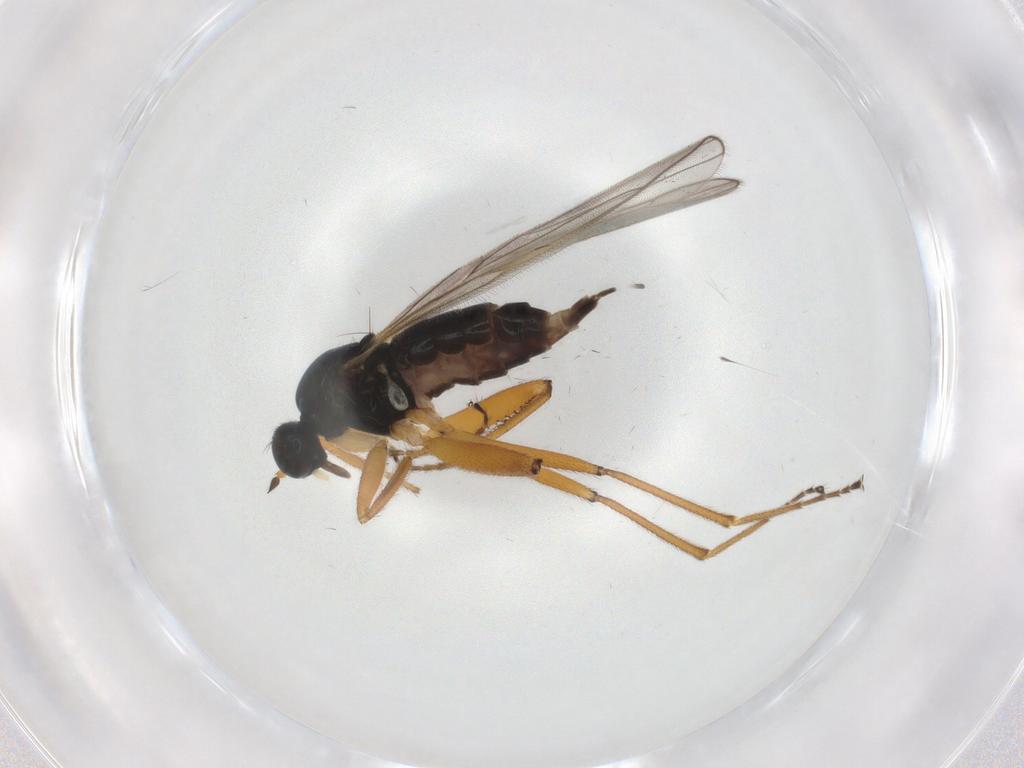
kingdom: Animalia
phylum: Arthropoda
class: Insecta
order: Diptera
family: Hybotidae
